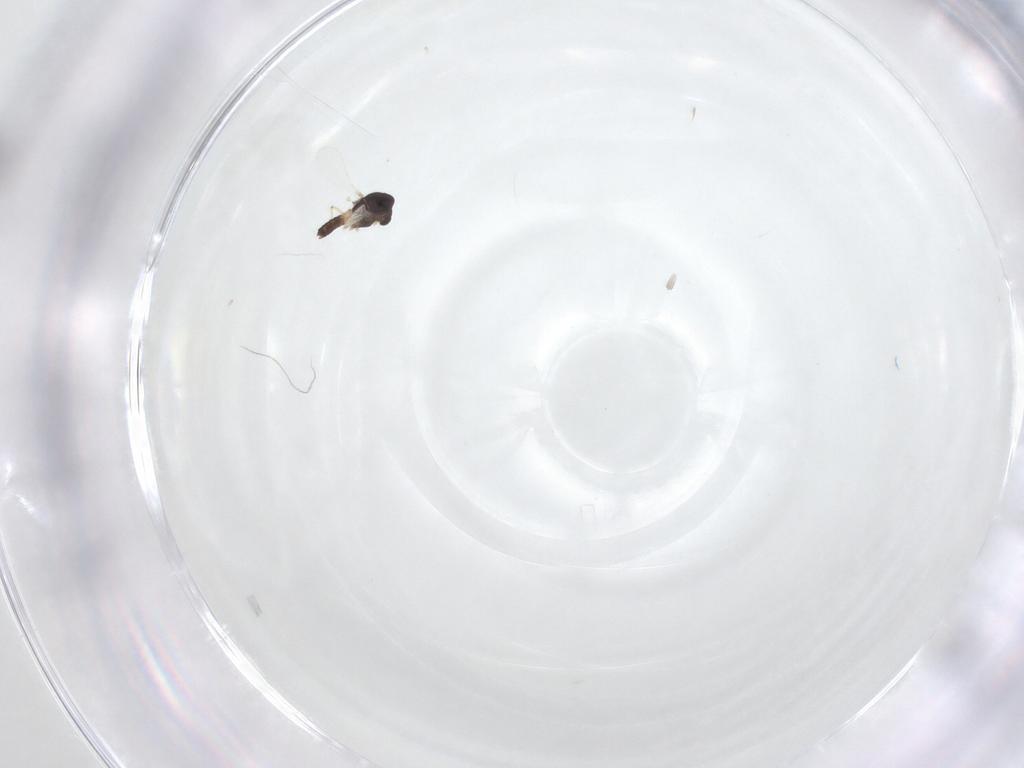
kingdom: Animalia
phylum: Arthropoda
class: Insecta
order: Diptera
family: Chironomidae
